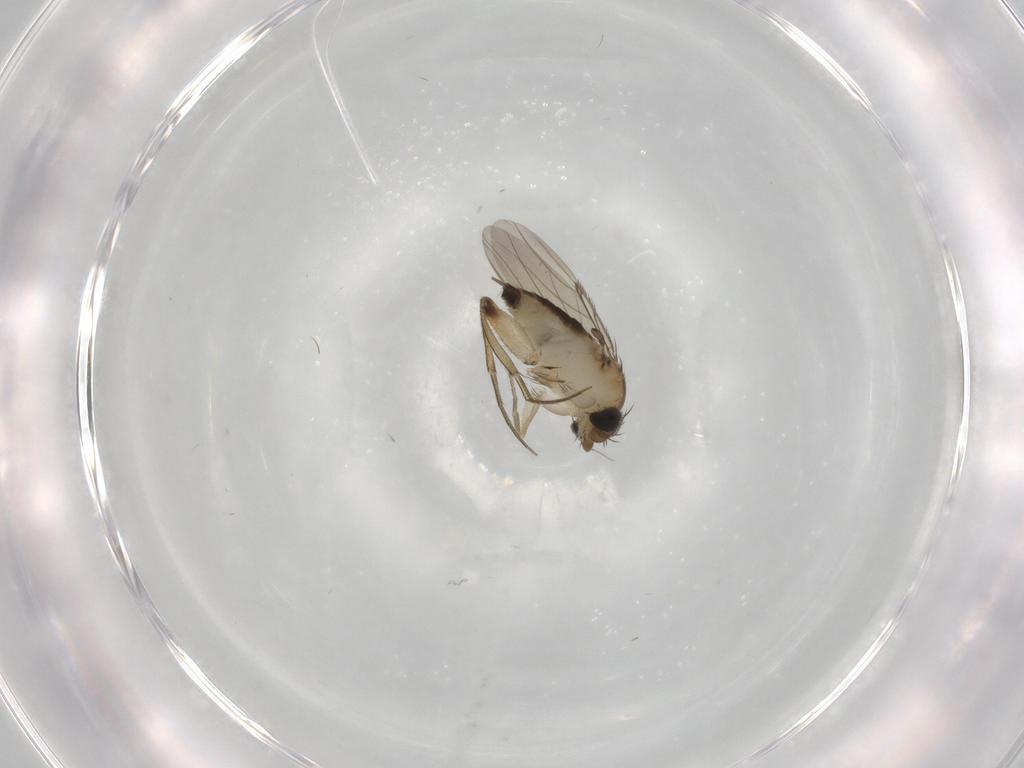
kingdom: Animalia
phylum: Arthropoda
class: Insecta
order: Diptera
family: Phoridae
